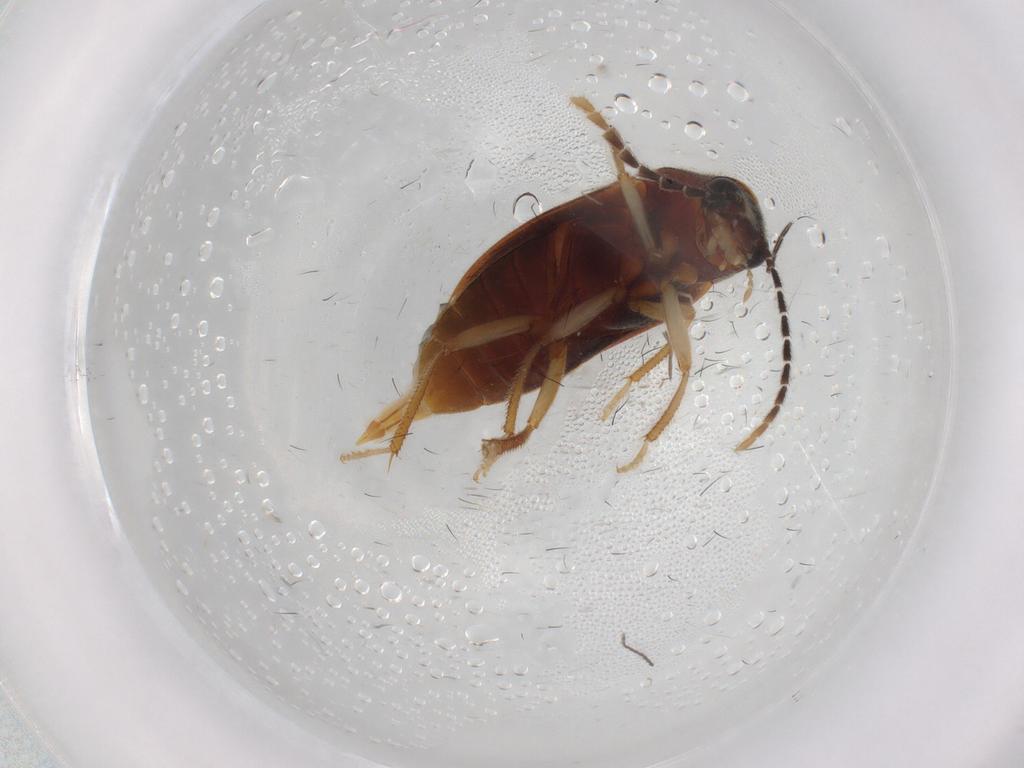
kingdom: Animalia
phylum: Arthropoda
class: Insecta
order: Coleoptera
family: Ptilodactylidae
